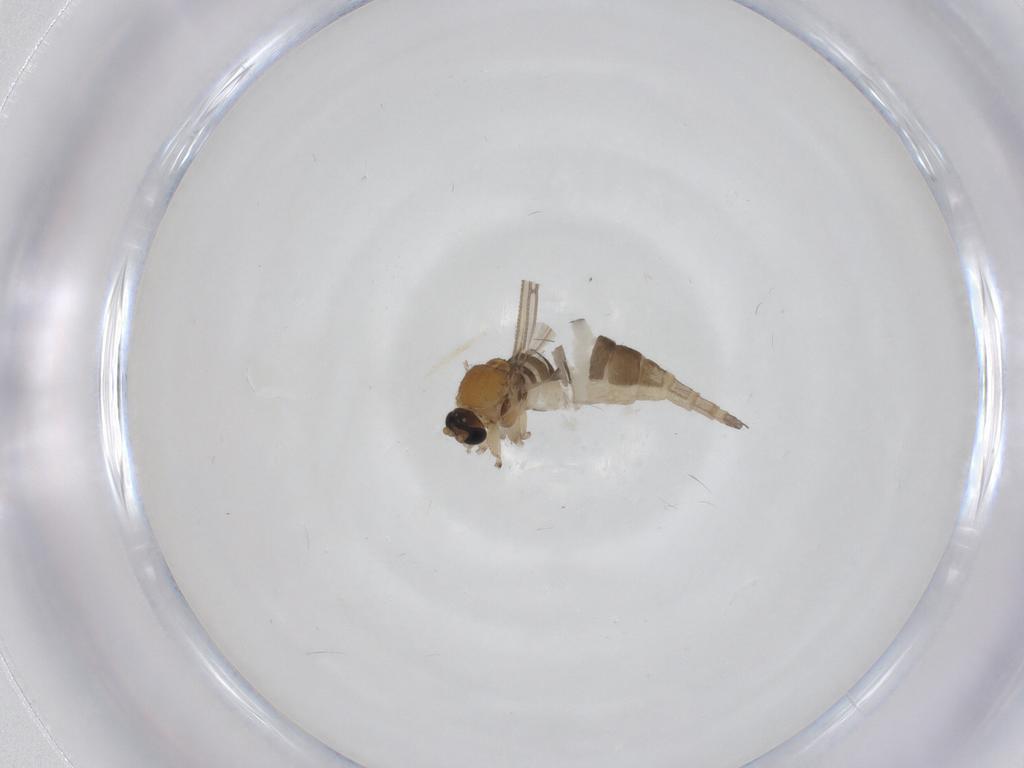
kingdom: Animalia
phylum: Arthropoda
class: Insecta
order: Diptera
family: Sciaridae
